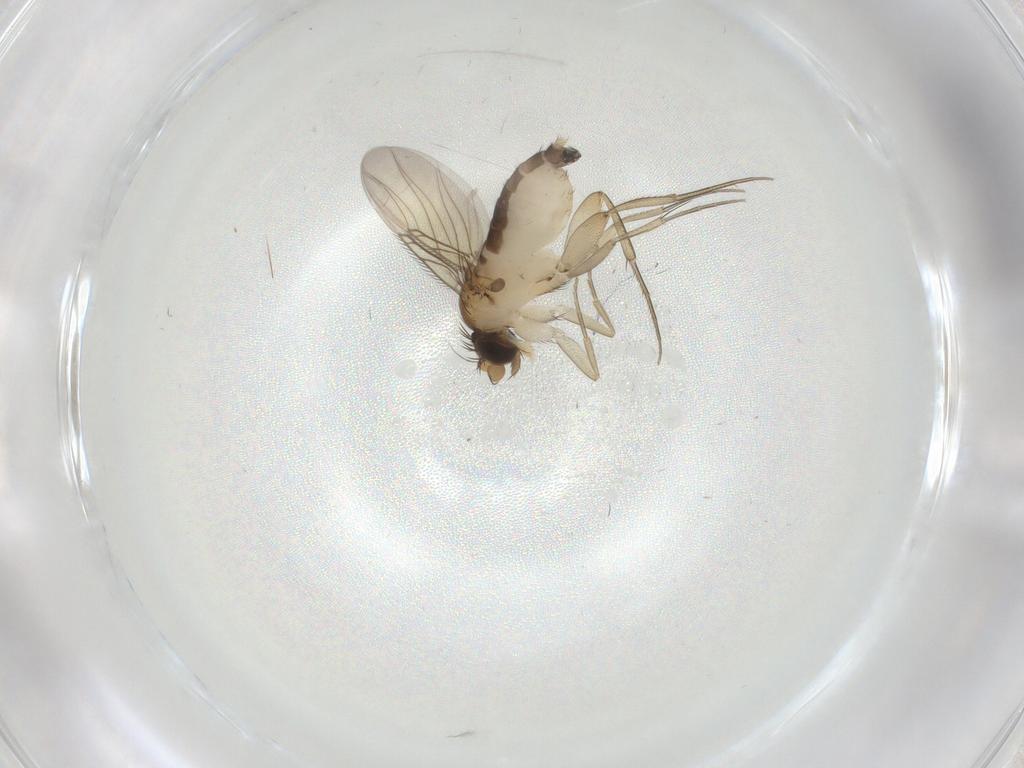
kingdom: Animalia
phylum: Arthropoda
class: Insecta
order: Diptera
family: Phoridae
